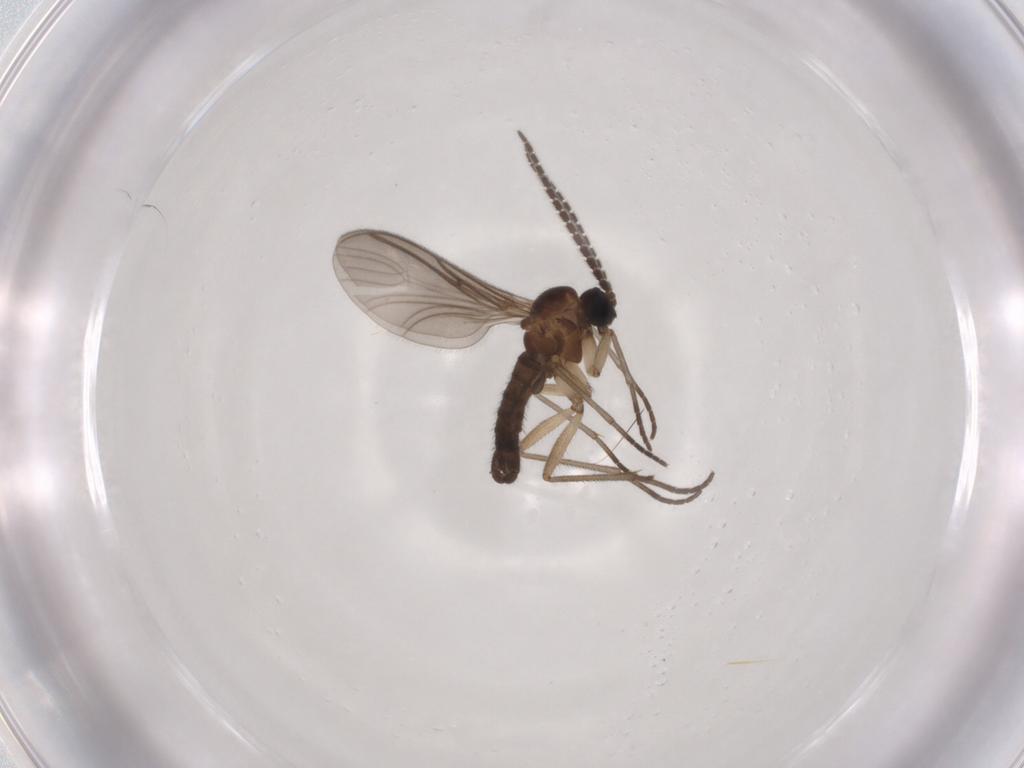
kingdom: Animalia
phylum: Arthropoda
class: Insecta
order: Diptera
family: Sciaridae
